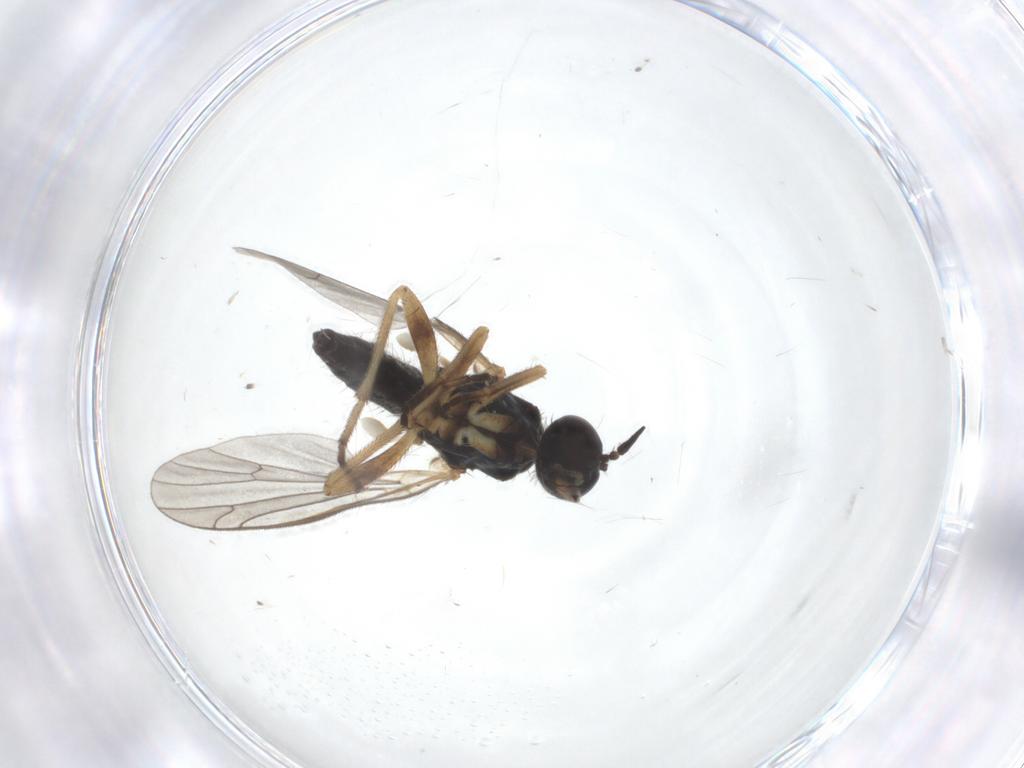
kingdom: Animalia
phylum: Arthropoda
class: Insecta
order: Diptera
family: Empididae
